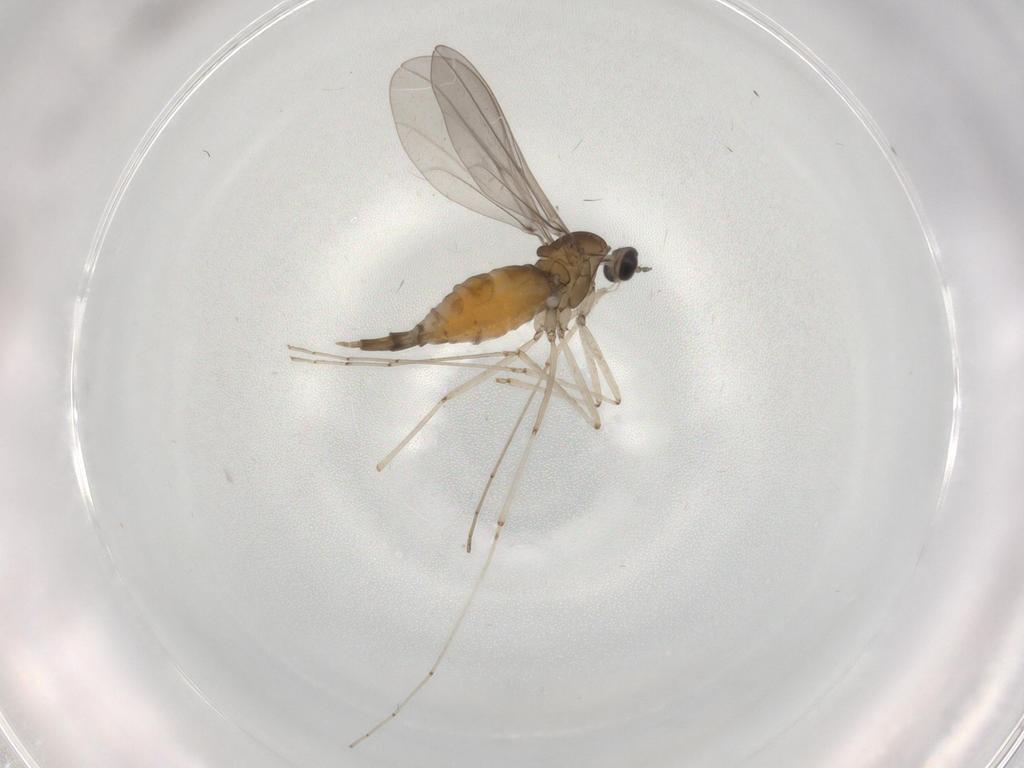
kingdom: Animalia
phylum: Arthropoda
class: Insecta
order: Diptera
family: Cecidomyiidae
